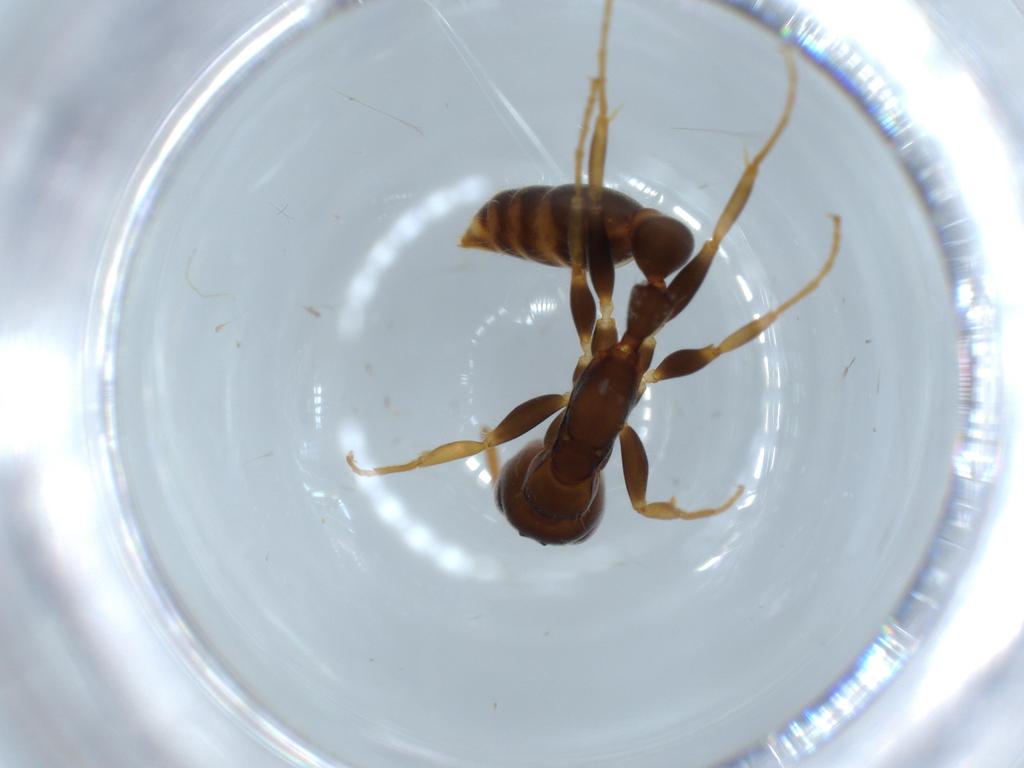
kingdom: Animalia
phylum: Arthropoda
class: Insecta
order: Hymenoptera
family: Formicidae
